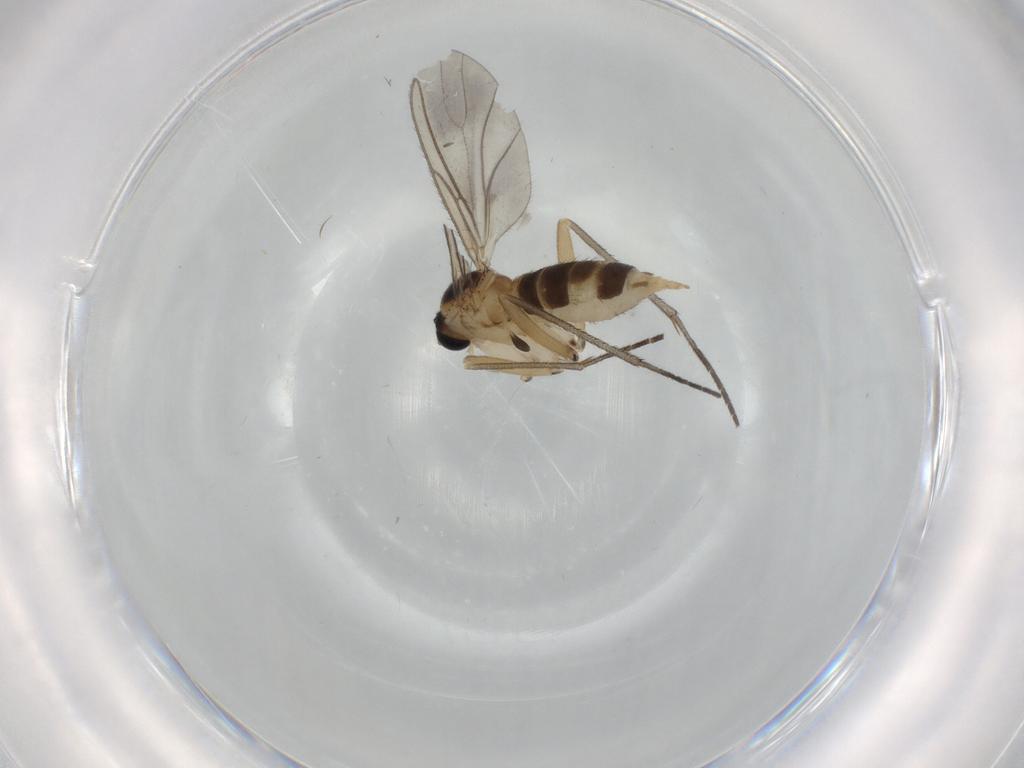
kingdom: Animalia
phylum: Arthropoda
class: Insecta
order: Diptera
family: Sciaridae
